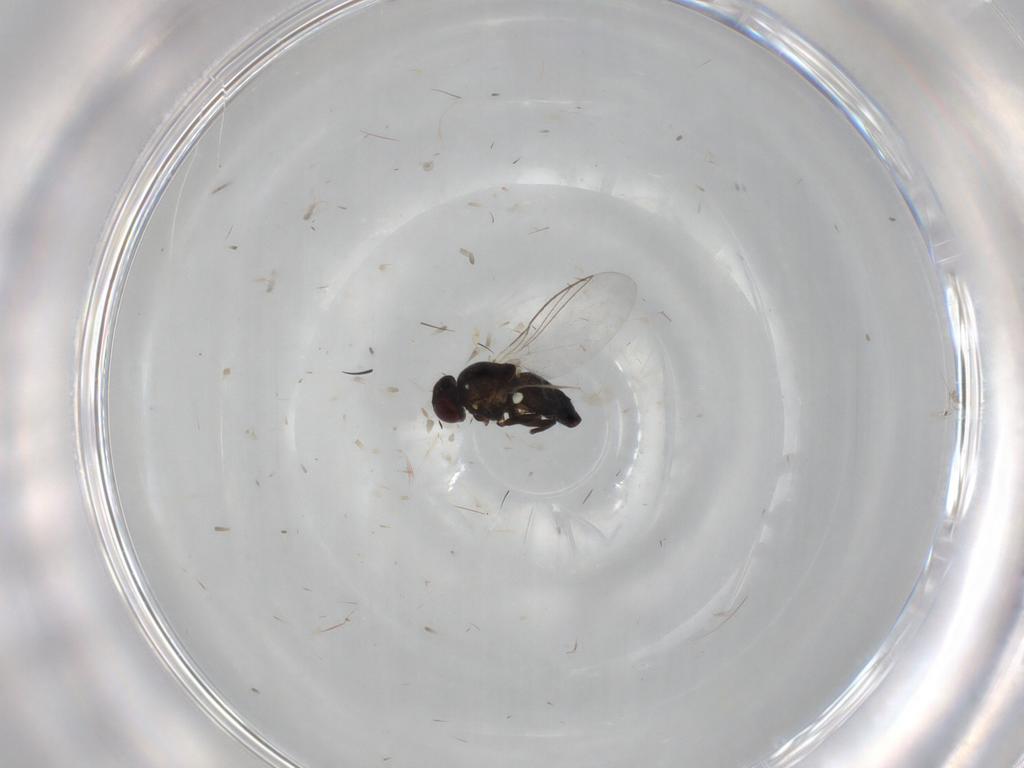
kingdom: Animalia
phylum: Arthropoda
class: Insecta
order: Diptera
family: Agromyzidae
